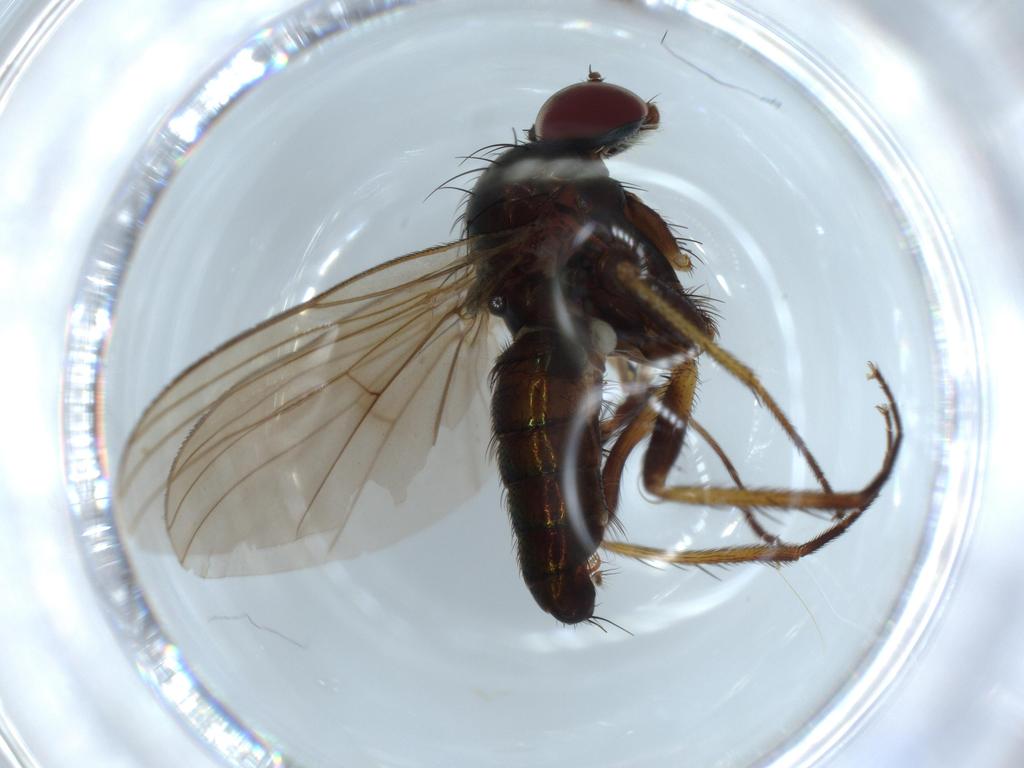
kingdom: Animalia
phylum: Arthropoda
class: Insecta
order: Diptera
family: Dolichopodidae
